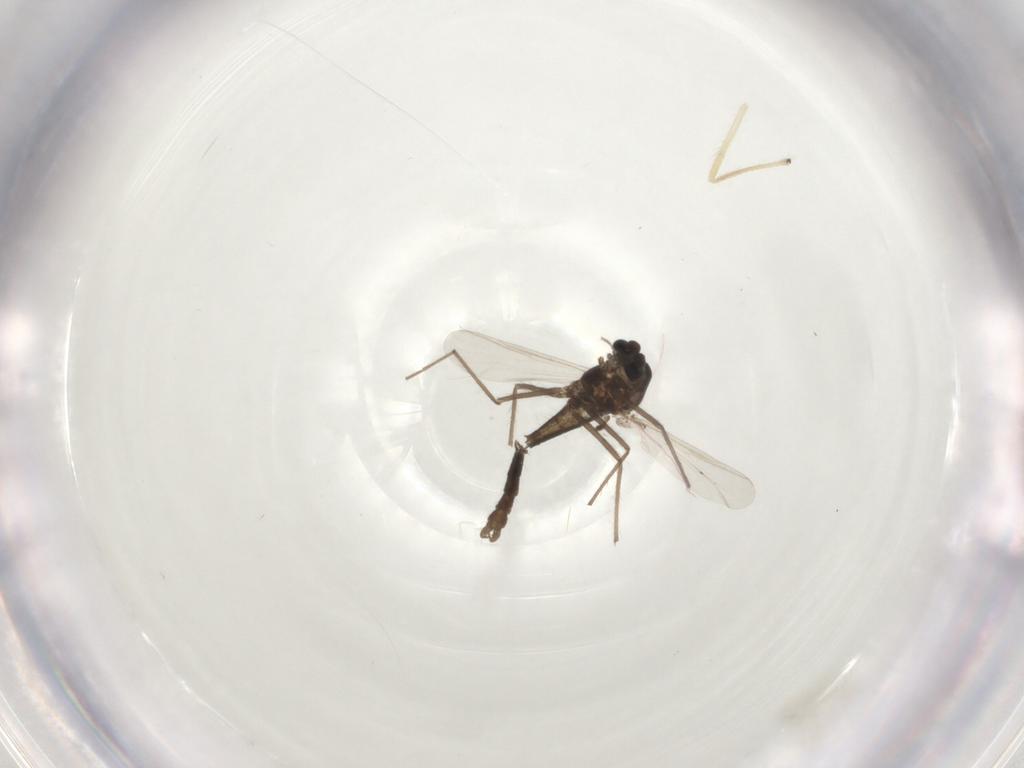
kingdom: Animalia
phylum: Arthropoda
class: Insecta
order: Diptera
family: Chironomidae
